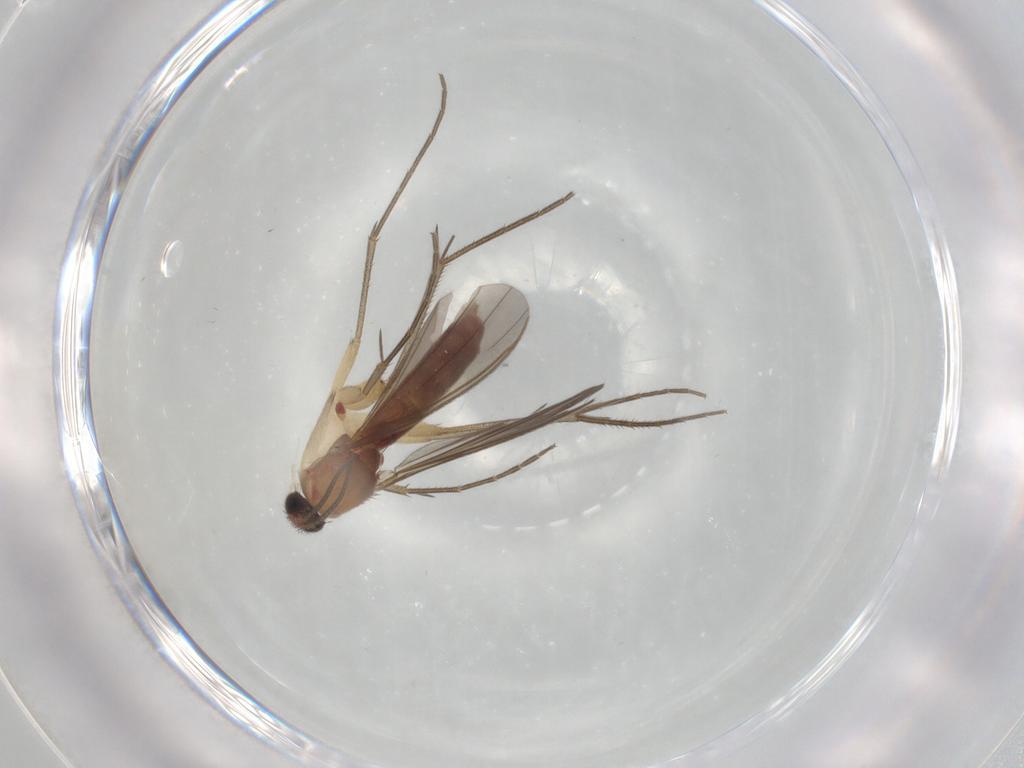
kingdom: Animalia
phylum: Arthropoda
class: Insecta
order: Diptera
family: Mycetophilidae
